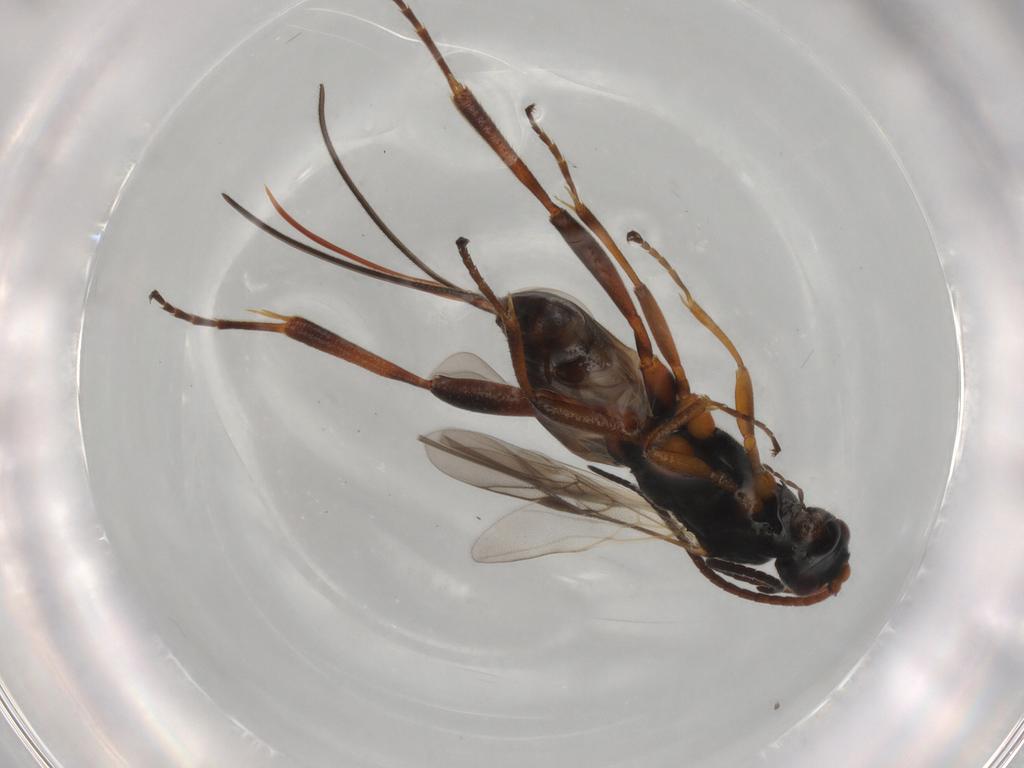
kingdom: Animalia
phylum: Arthropoda
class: Insecta
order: Hymenoptera
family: Braconidae
